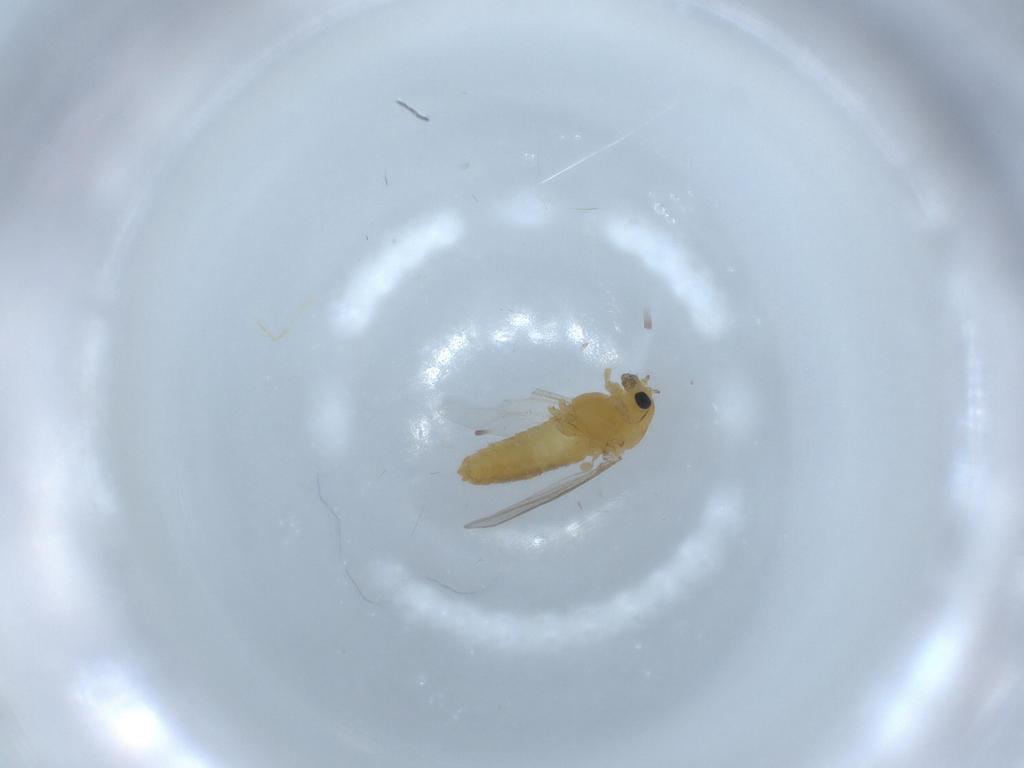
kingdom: Animalia
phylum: Arthropoda
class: Insecta
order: Diptera
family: Chironomidae
